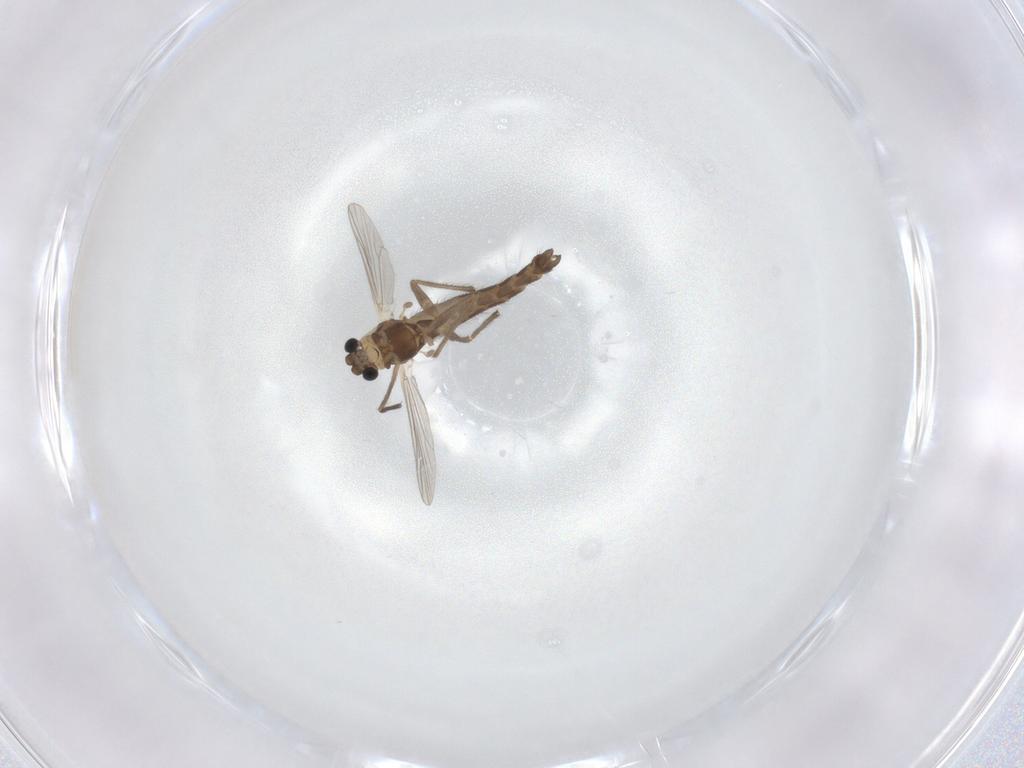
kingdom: Animalia
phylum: Arthropoda
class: Insecta
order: Diptera
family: Chironomidae
